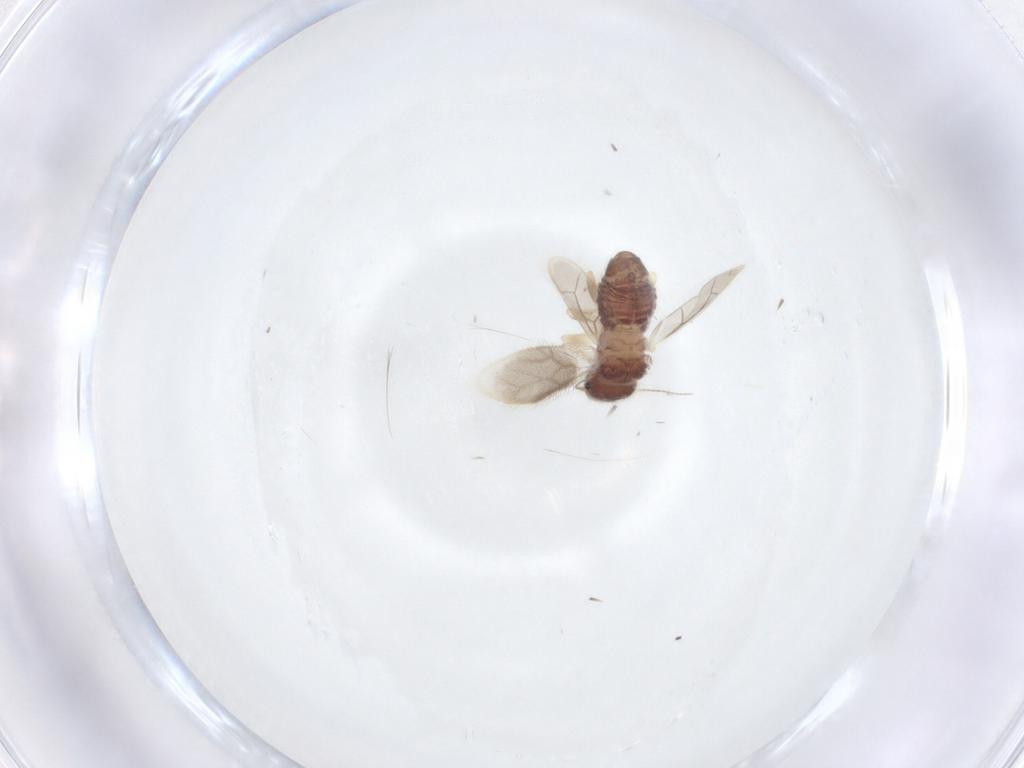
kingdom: Animalia
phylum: Arthropoda
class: Insecta
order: Psocodea
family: Archipsocidae
